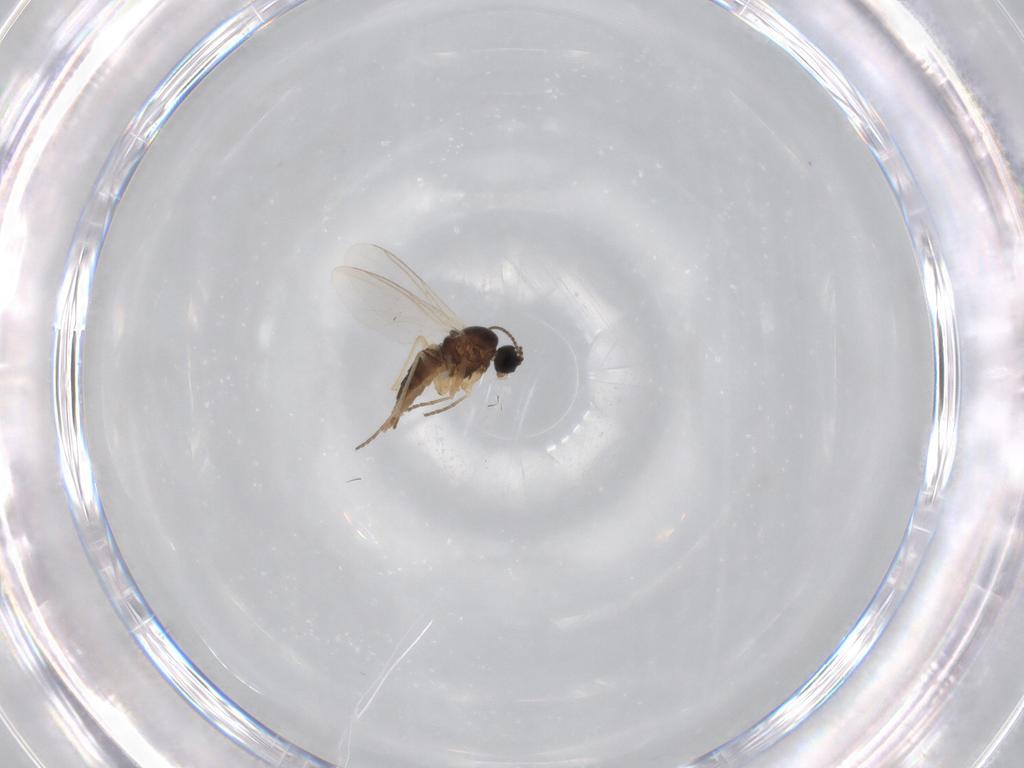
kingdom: Animalia
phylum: Arthropoda
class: Insecta
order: Diptera
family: Sciaridae
